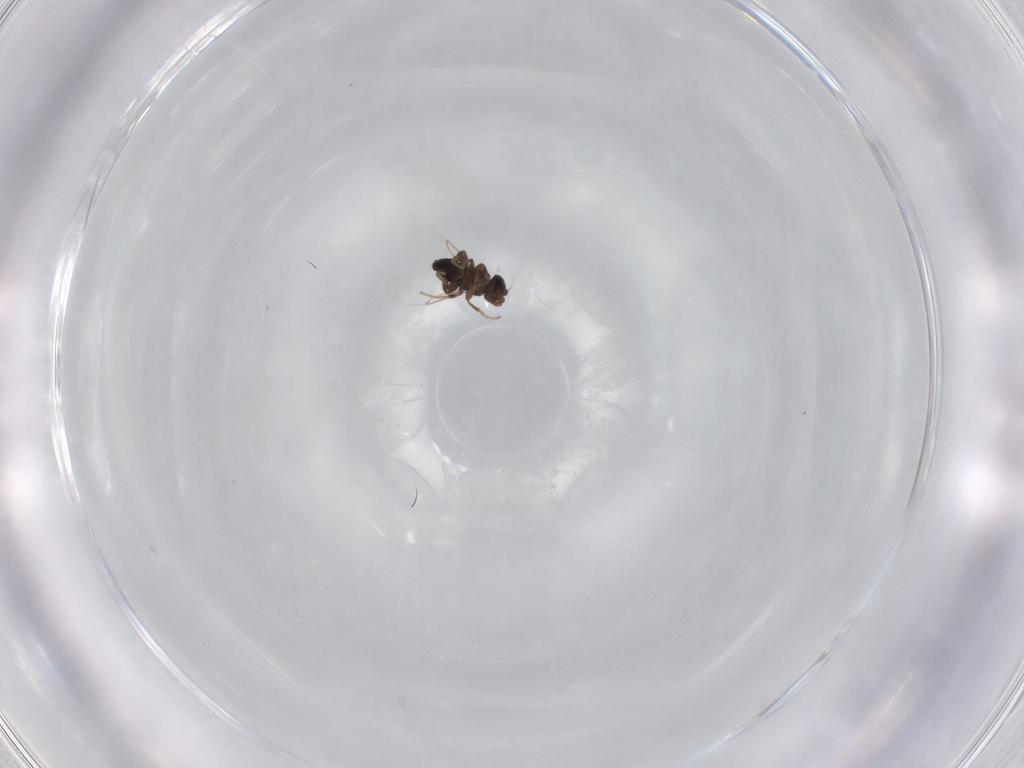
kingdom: Animalia
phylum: Arthropoda
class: Insecta
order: Diptera
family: Phoridae
